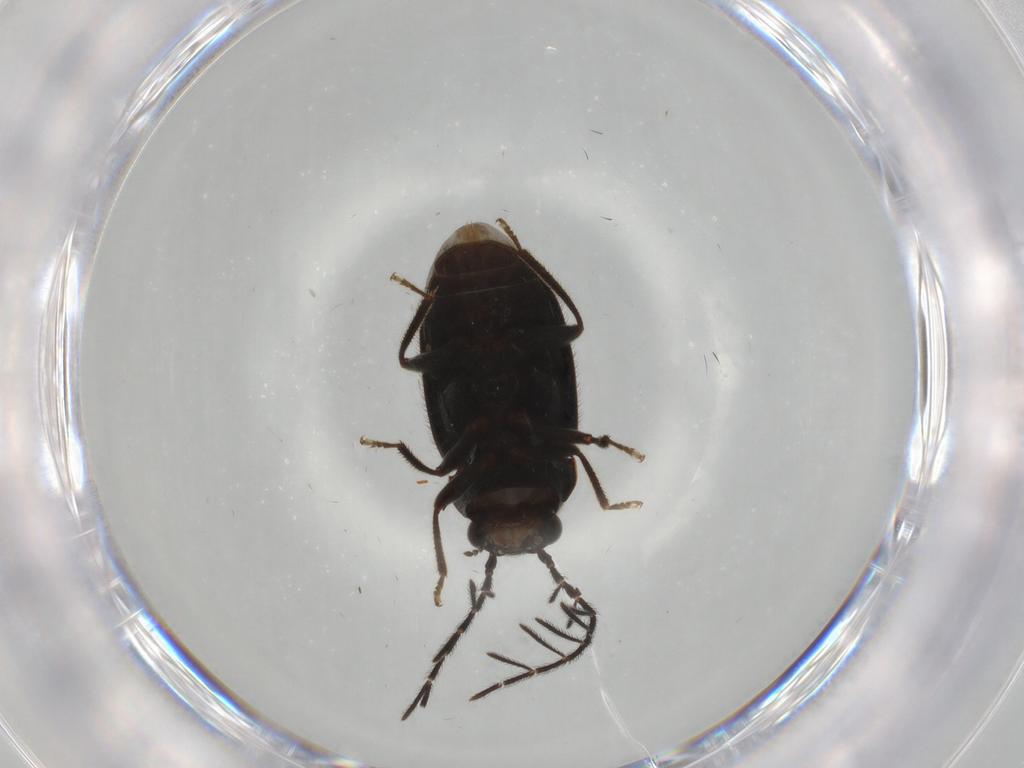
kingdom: Animalia
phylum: Arthropoda
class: Insecta
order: Coleoptera
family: Ptilodactylidae
